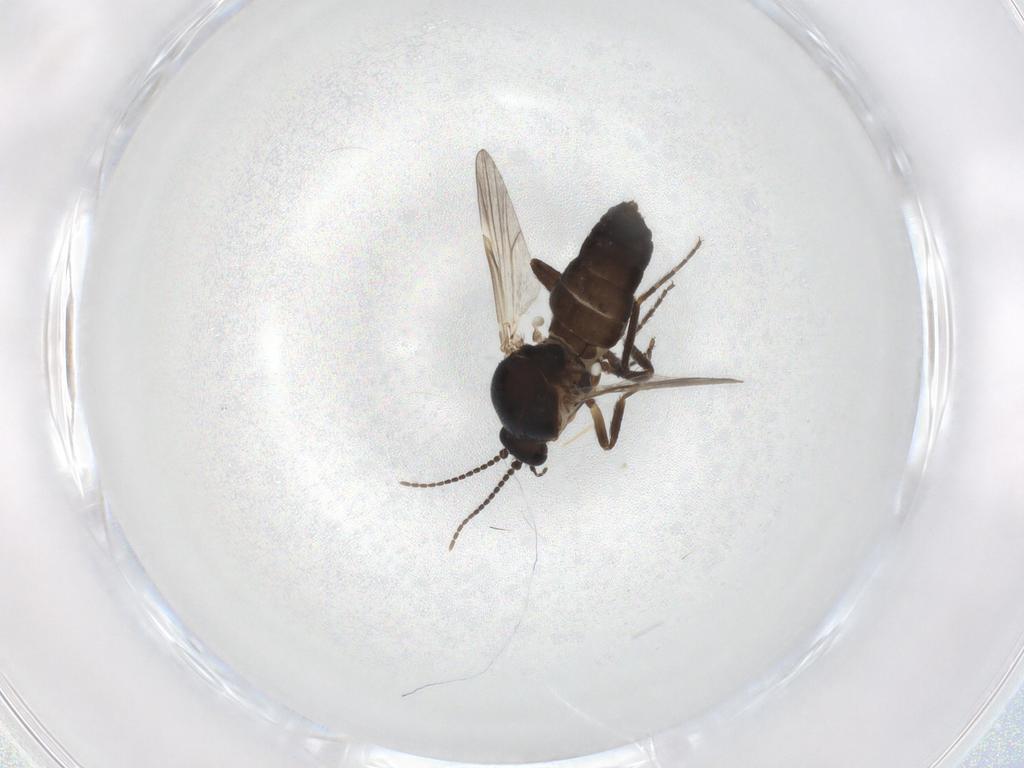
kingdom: Animalia
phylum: Arthropoda
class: Insecta
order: Diptera
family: Ceratopogonidae
